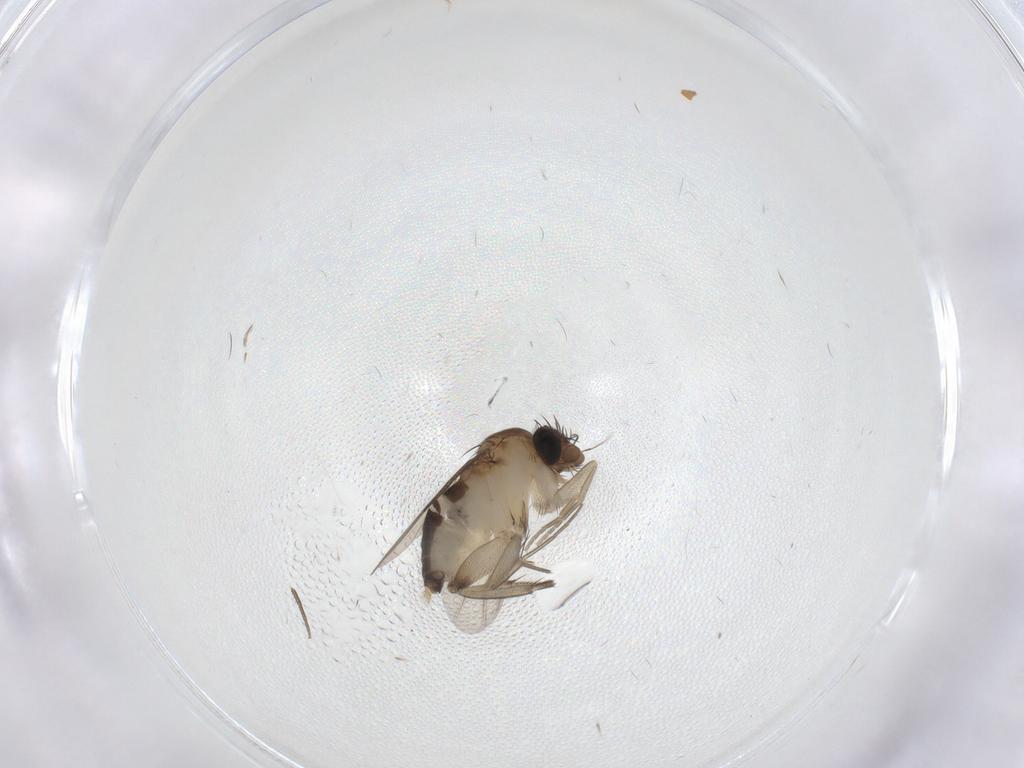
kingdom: Animalia
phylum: Arthropoda
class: Insecta
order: Diptera
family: Phoridae
